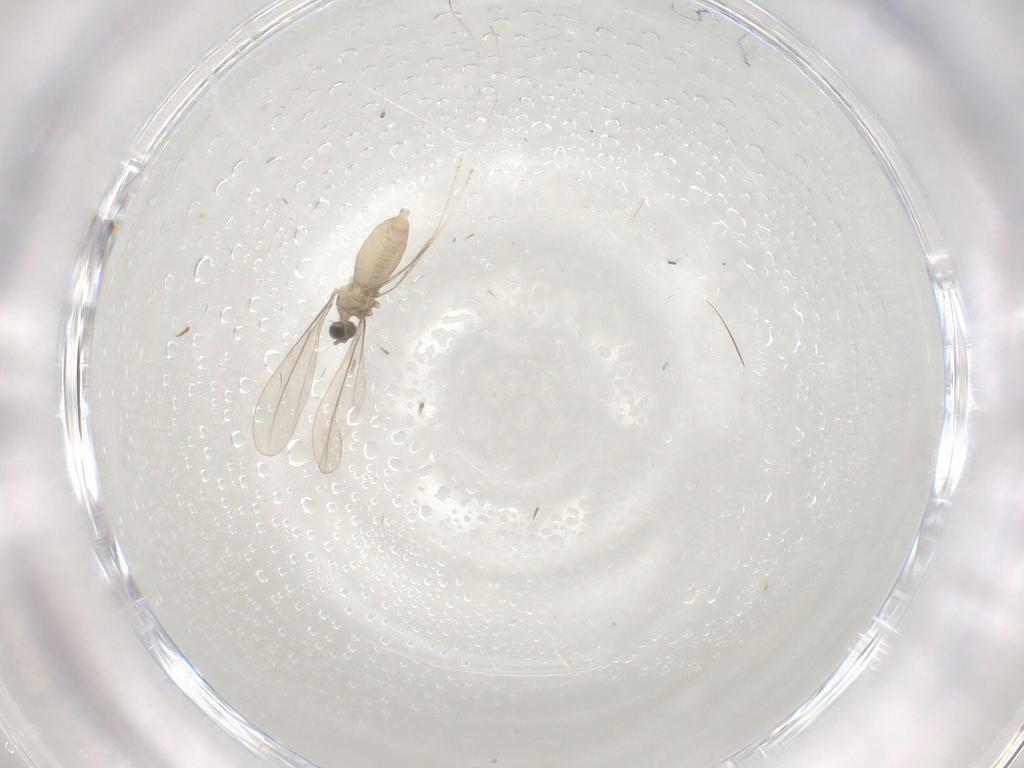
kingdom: Animalia
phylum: Arthropoda
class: Insecta
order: Diptera
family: Cecidomyiidae
